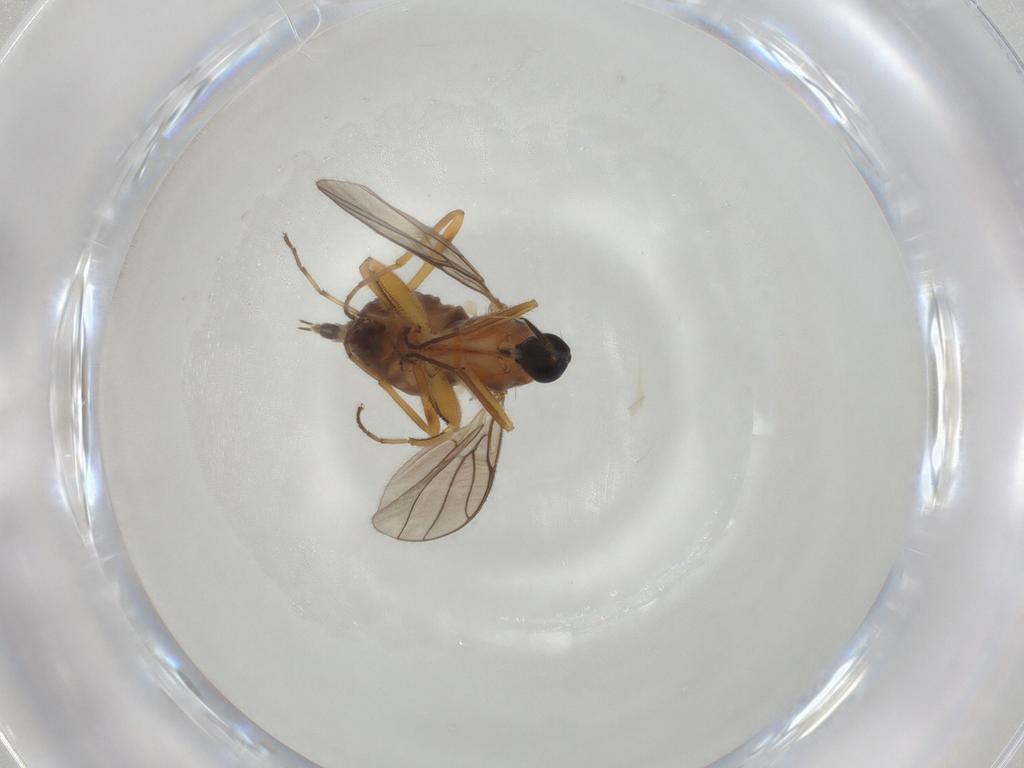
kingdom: Animalia
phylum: Arthropoda
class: Insecta
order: Diptera
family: Hybotidae
